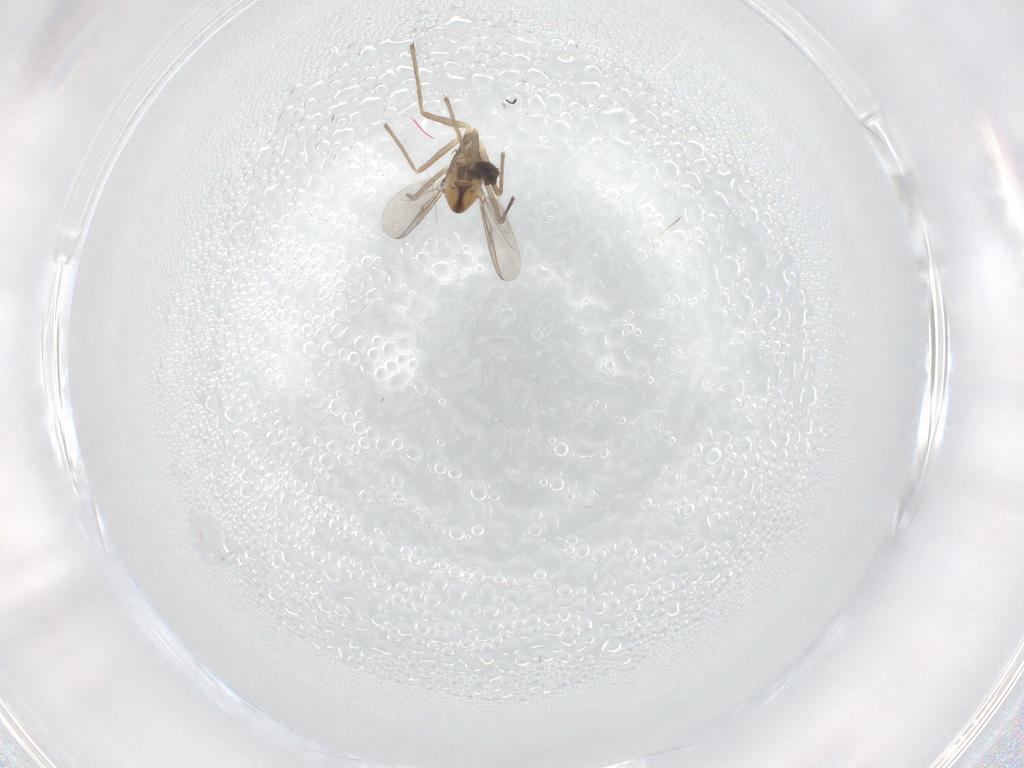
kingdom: Animalia
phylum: Arthropoda
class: Insecta
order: Diptera
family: Chironomidae
